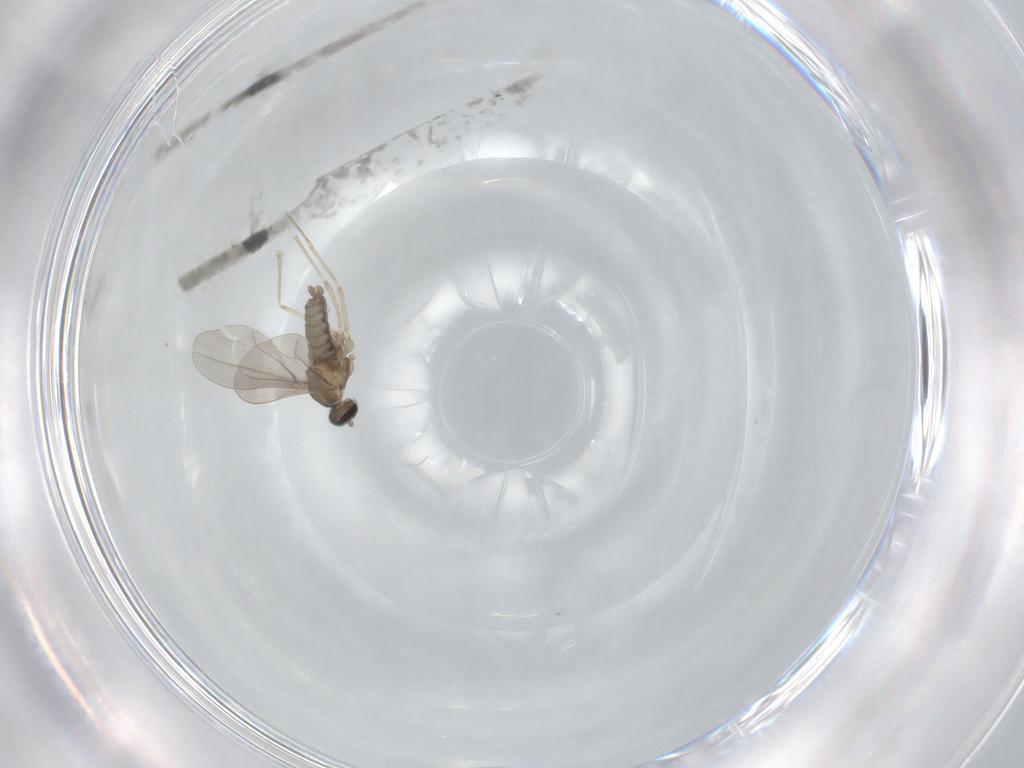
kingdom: Animalia
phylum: Arthropoda
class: Insecta
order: Diptera
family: Cecidomyiidae
